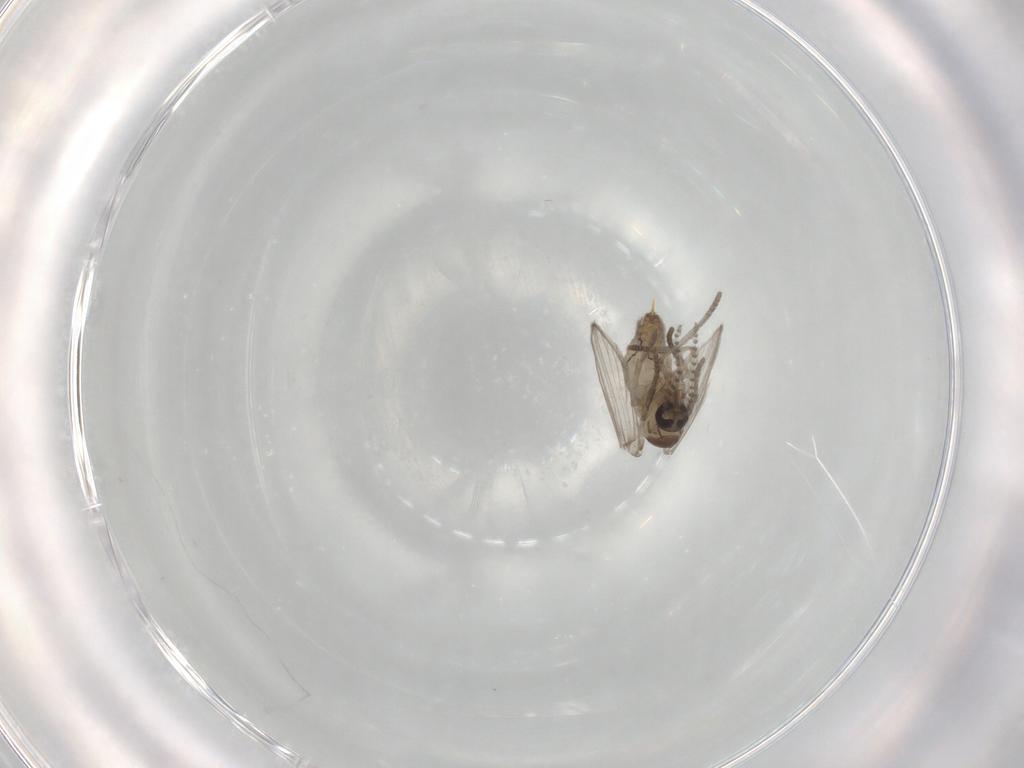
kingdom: Animalia
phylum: Arthropoda
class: Insecta
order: Diptera
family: Psychodidae
